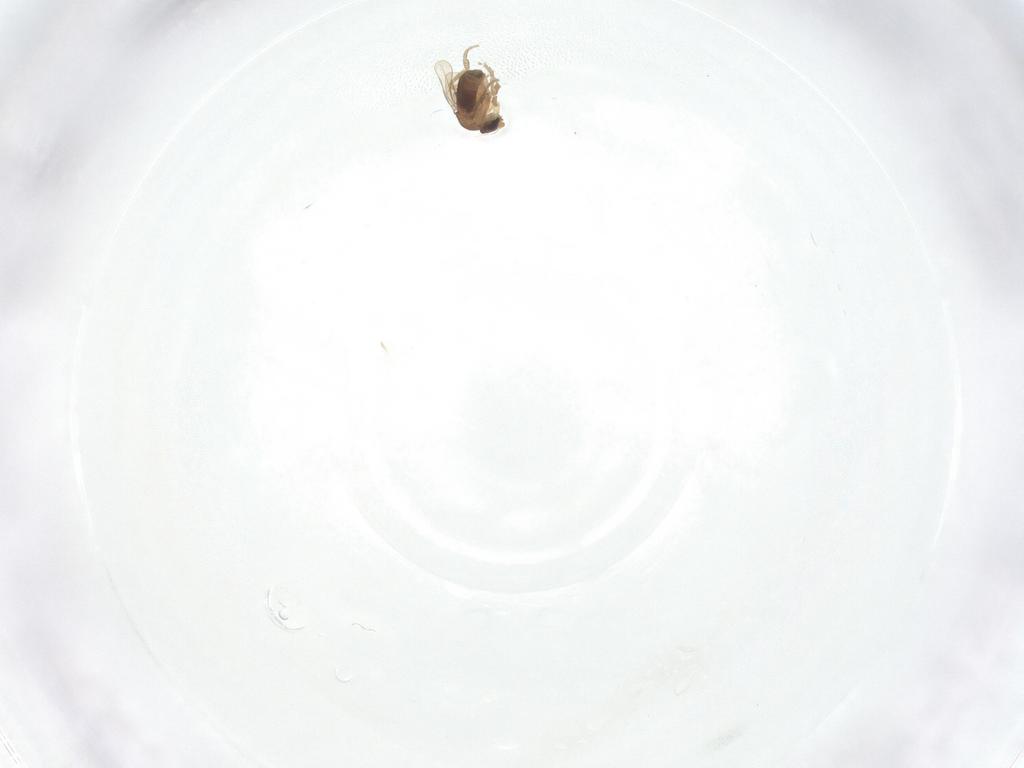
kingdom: Animalia
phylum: Arthropoda
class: Insecta
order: Diptera
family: Phoridae
